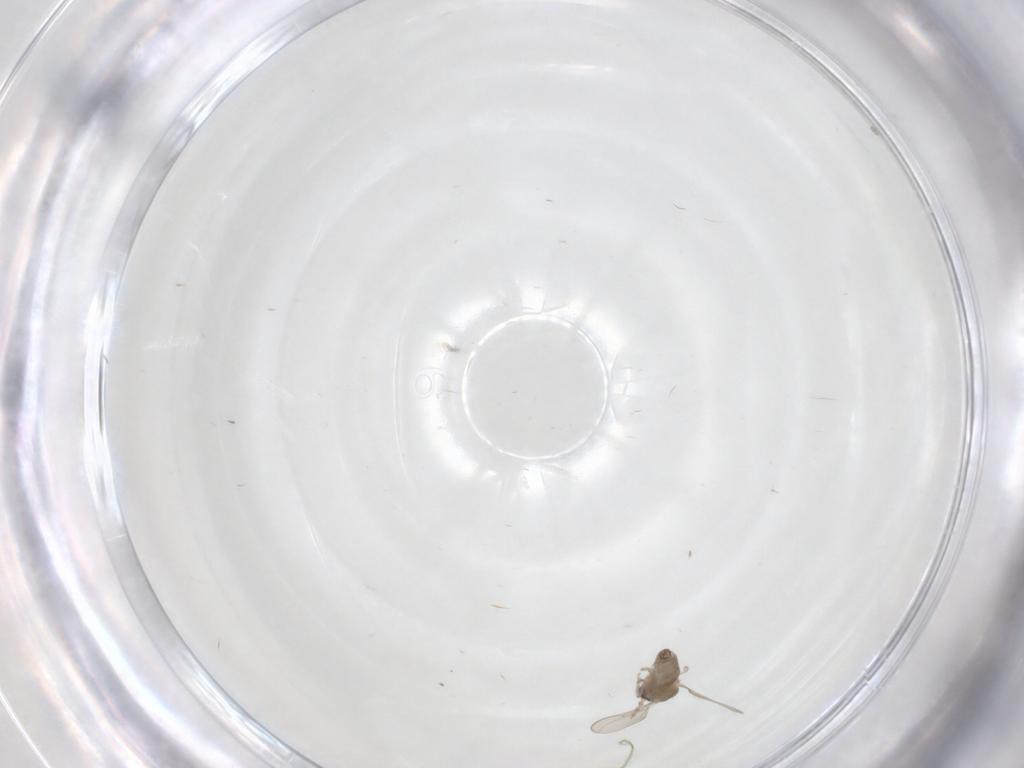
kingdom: Animalia
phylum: Arthropoda
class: Insecta
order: Diptera
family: Cecidomyiidae
